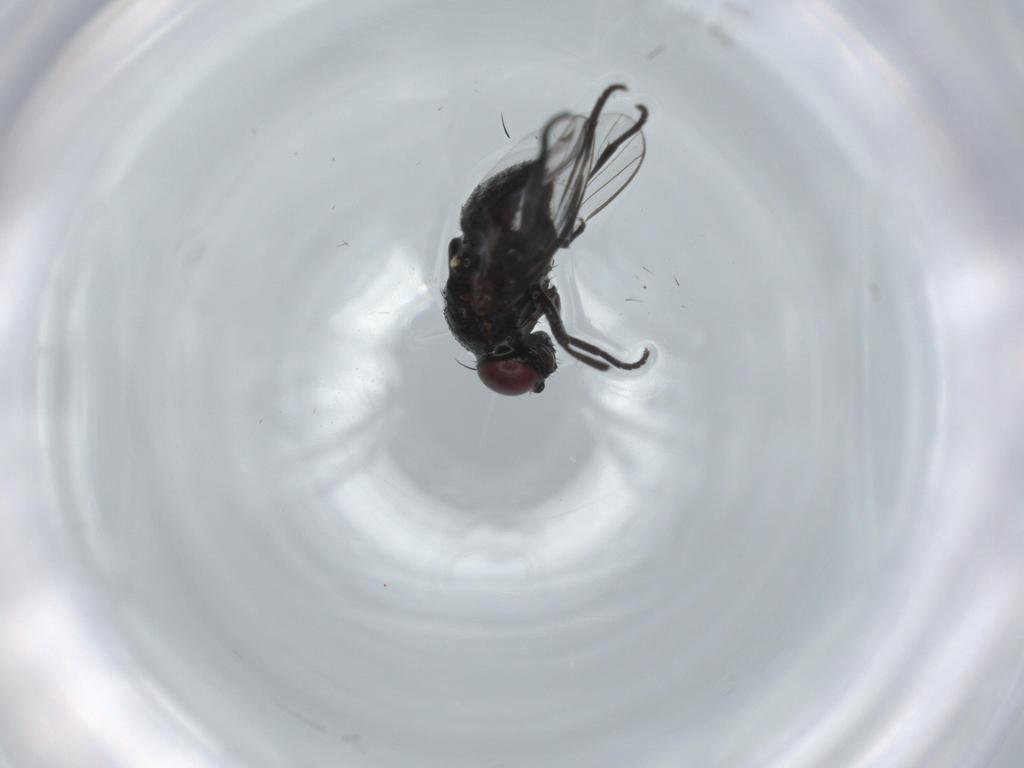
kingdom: Animalia
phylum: Arthropoda
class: Insecta
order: Diptera
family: Agromyzidae
